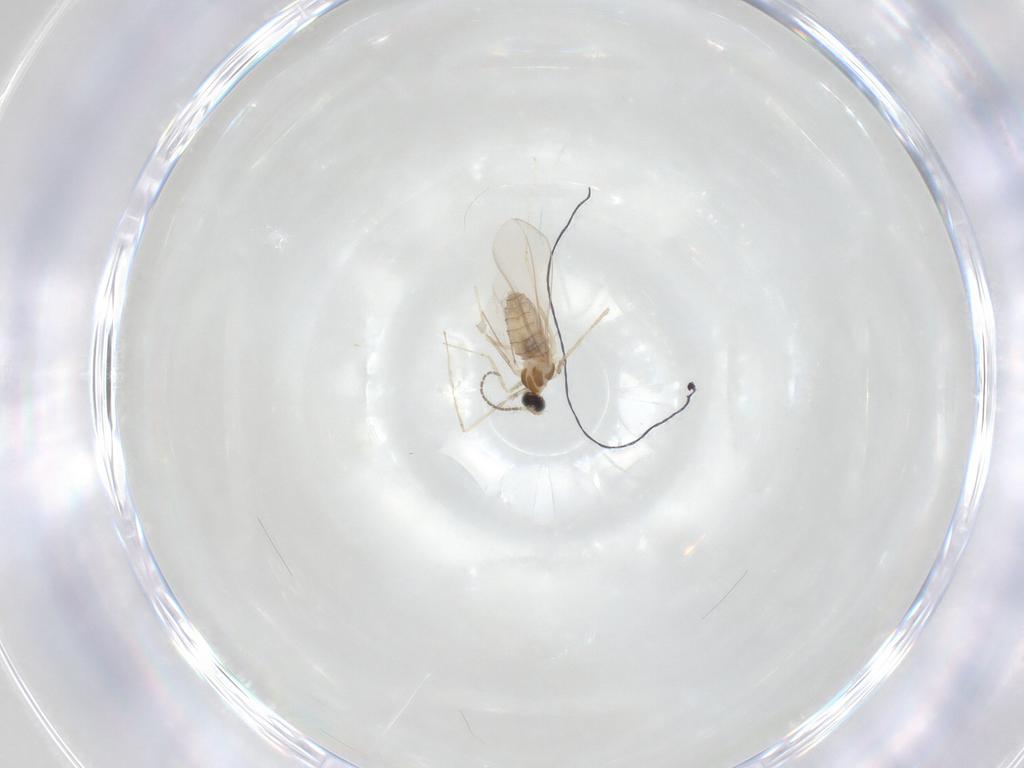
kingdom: Animalia
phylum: Arthropoda
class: Insecta
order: Diptera
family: Cecidomyiidae
